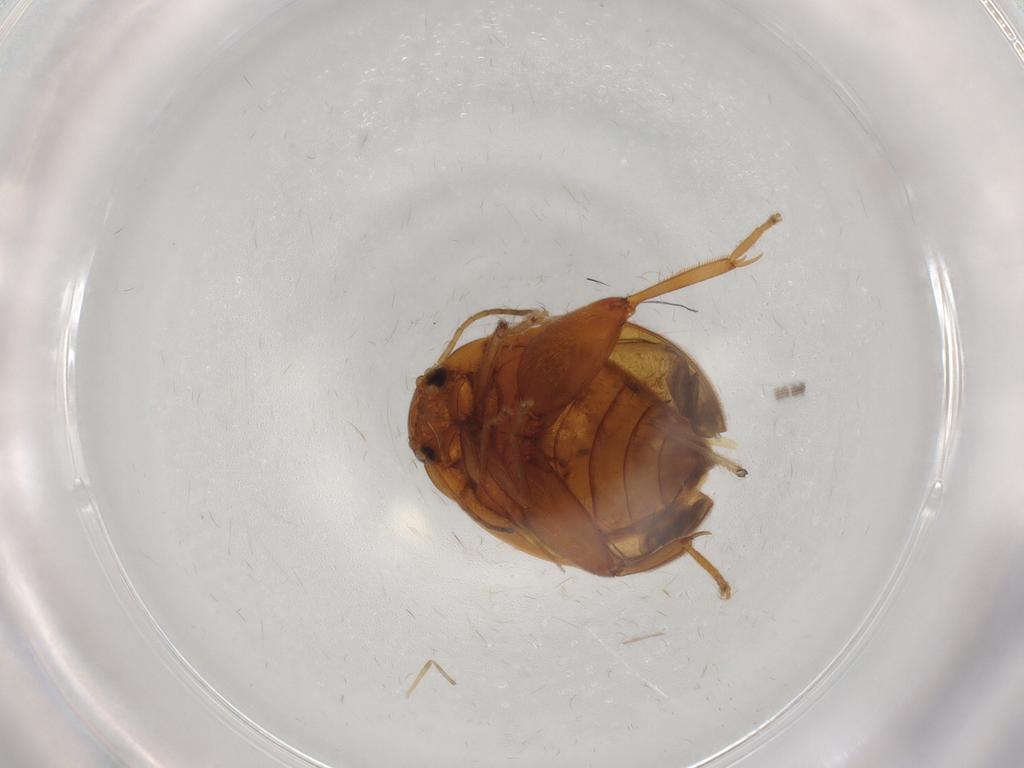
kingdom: Animalia
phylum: Arthropoda
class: Insecta
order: Coleoptera
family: Scirtidae
